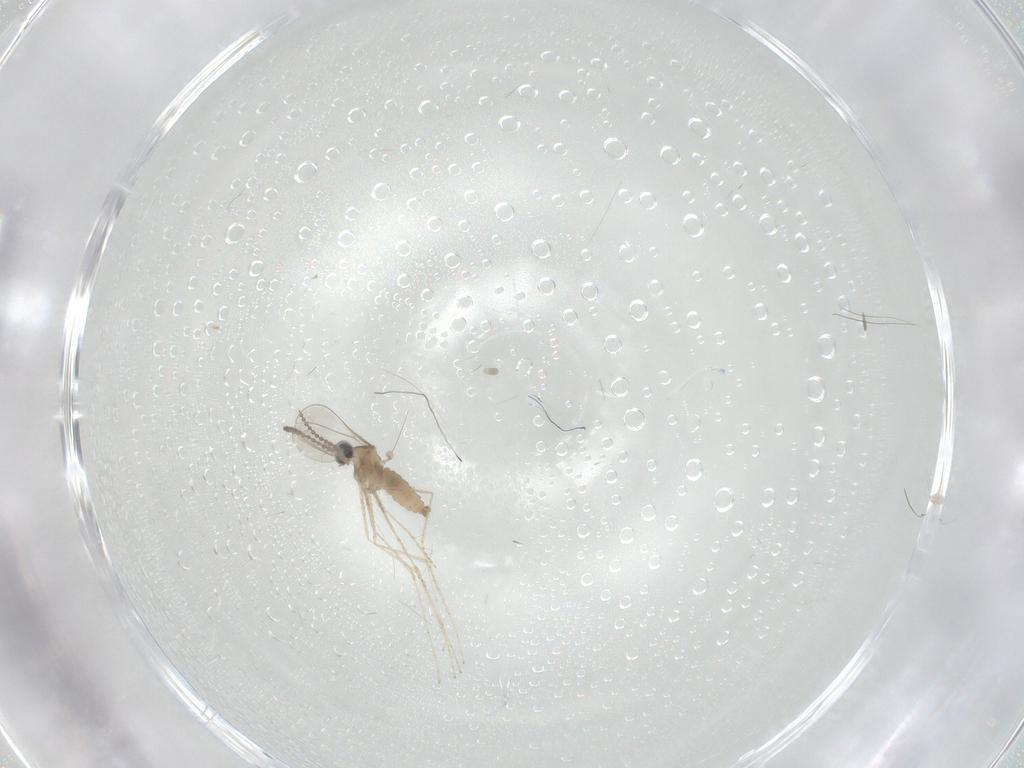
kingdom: Animalia
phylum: Arthropoda
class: Insecta
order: Diptera
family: Cecidomyiidae
